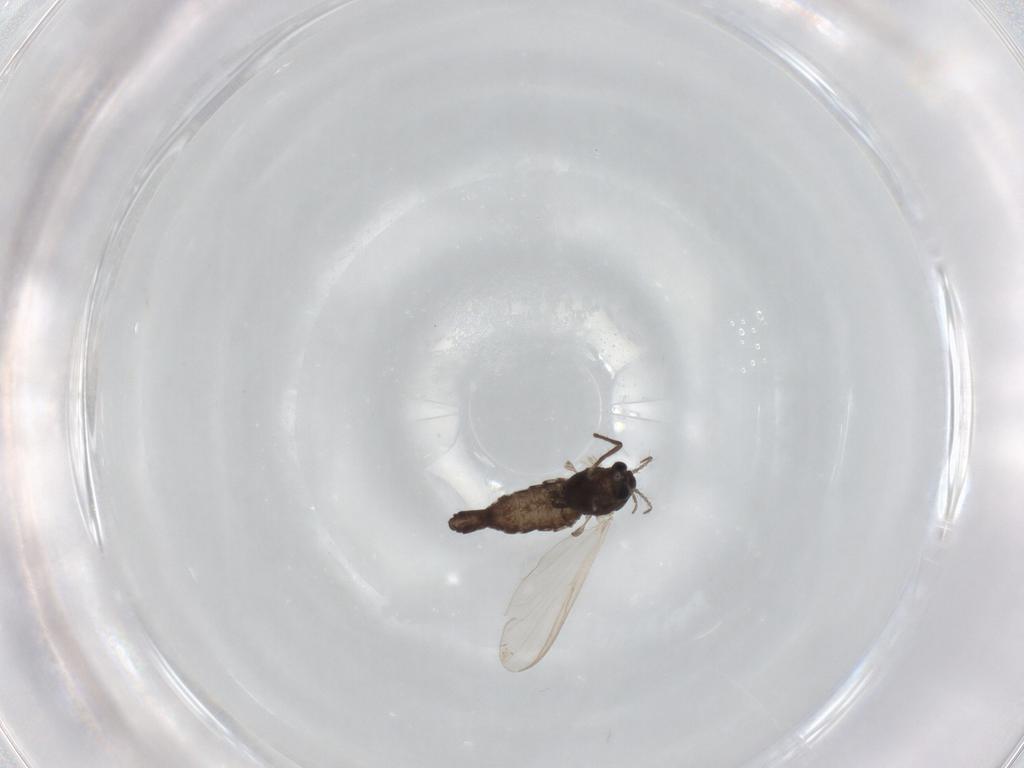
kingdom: Animalia
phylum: Arthropoda
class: Insecta
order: Diptera
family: Chironomidae
